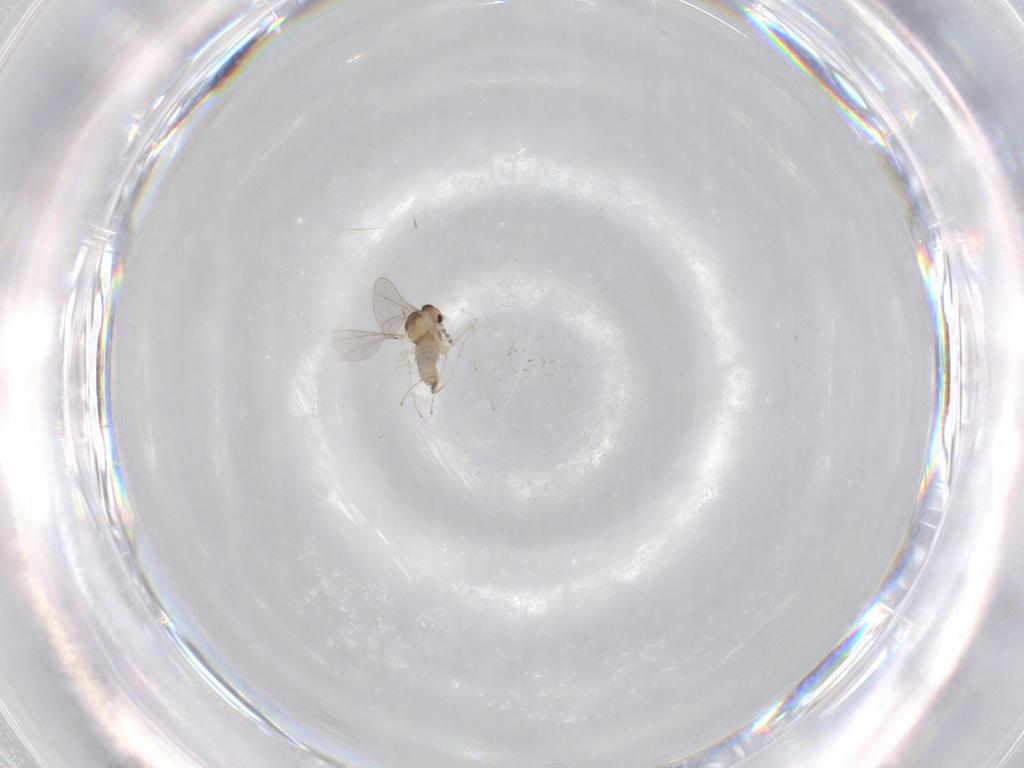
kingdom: Animalia
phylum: Arthropoda
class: Insecta
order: Diptera
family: Cecidomyiidae
